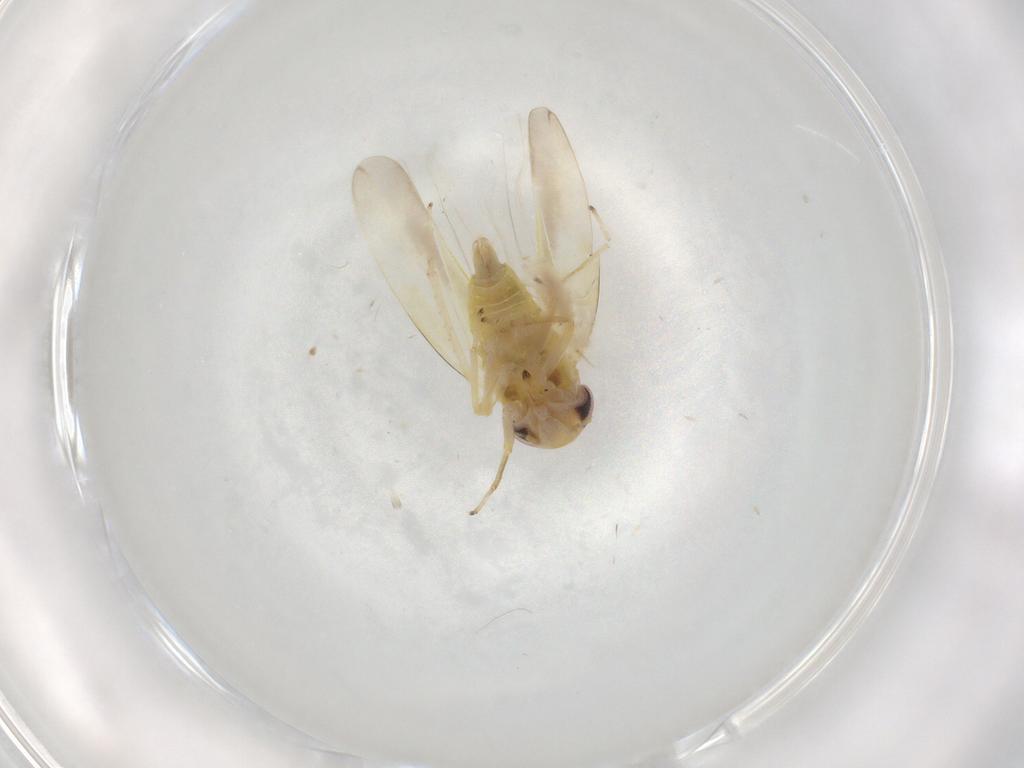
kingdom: Animalia
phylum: Arthropoda
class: Insecta
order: Hemiptera
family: Cicadellidae
